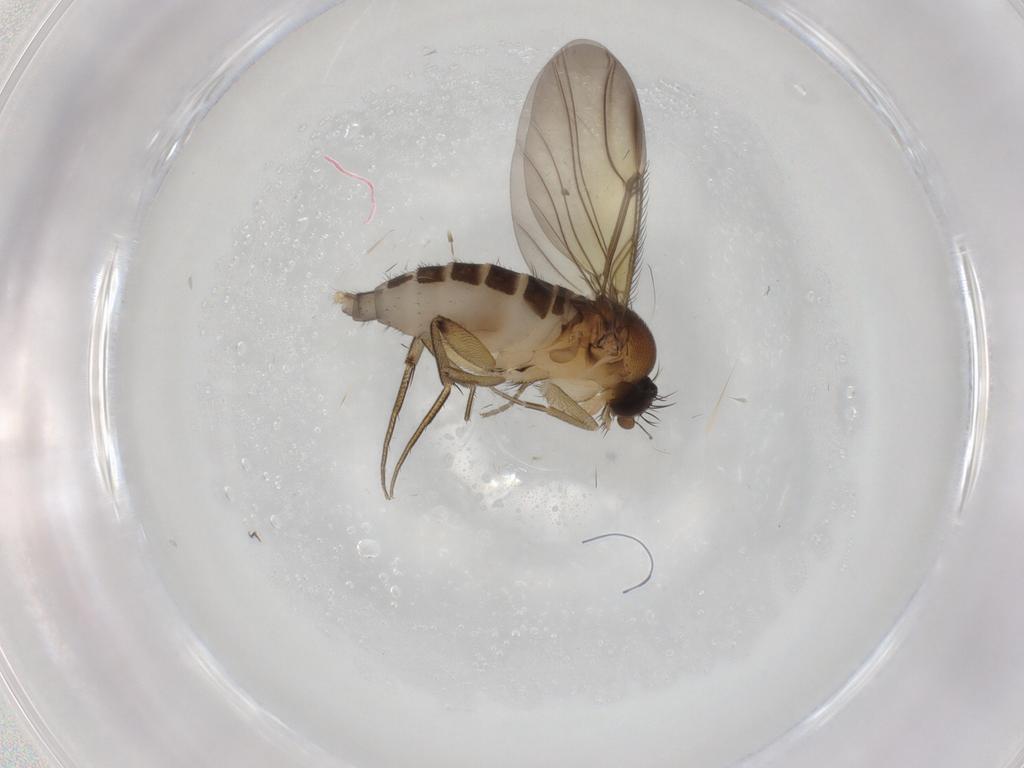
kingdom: Animalia
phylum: Arthropoda
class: Insecta
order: Diptera
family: Phoridae
